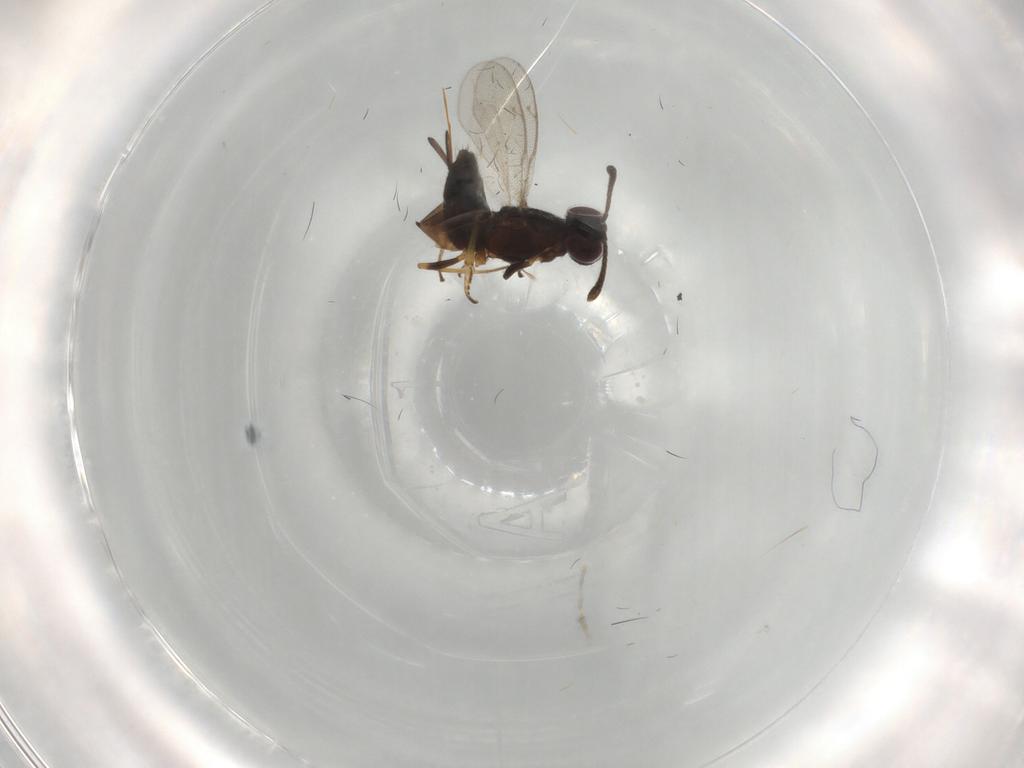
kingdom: Animalia
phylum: Arthropoda
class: Insecta
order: Hymenoptera
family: Eupelmidae
